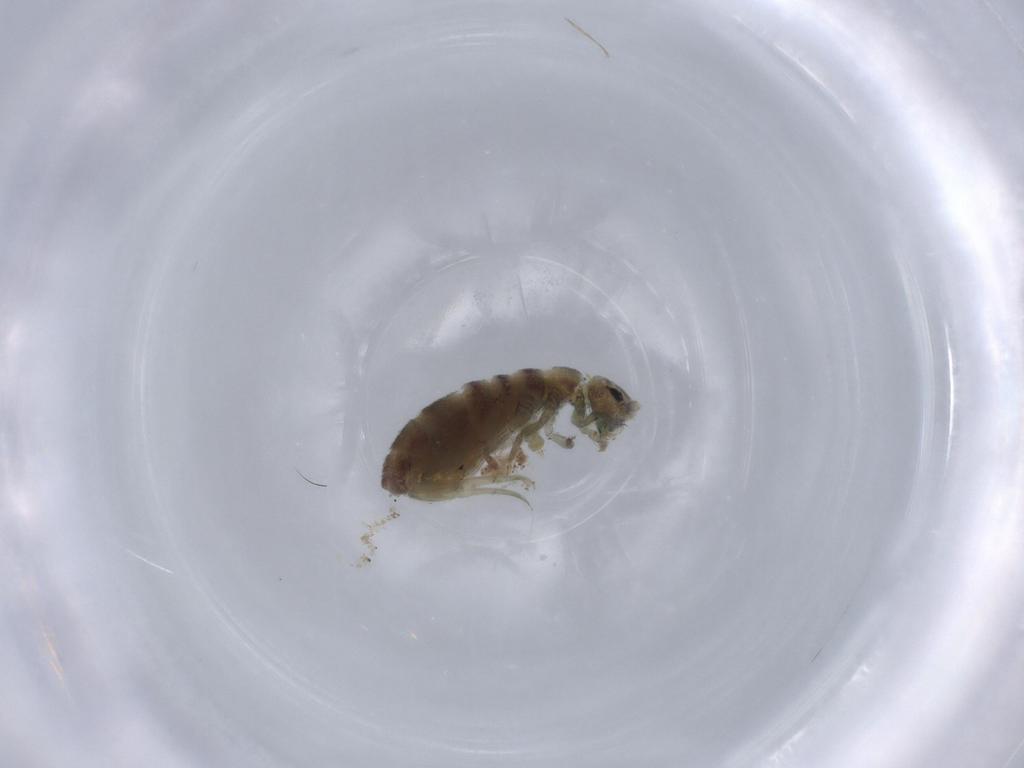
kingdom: Animalia
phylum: Arthropoda
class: Collembola
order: Entomobryomorpha
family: Isotomidae
